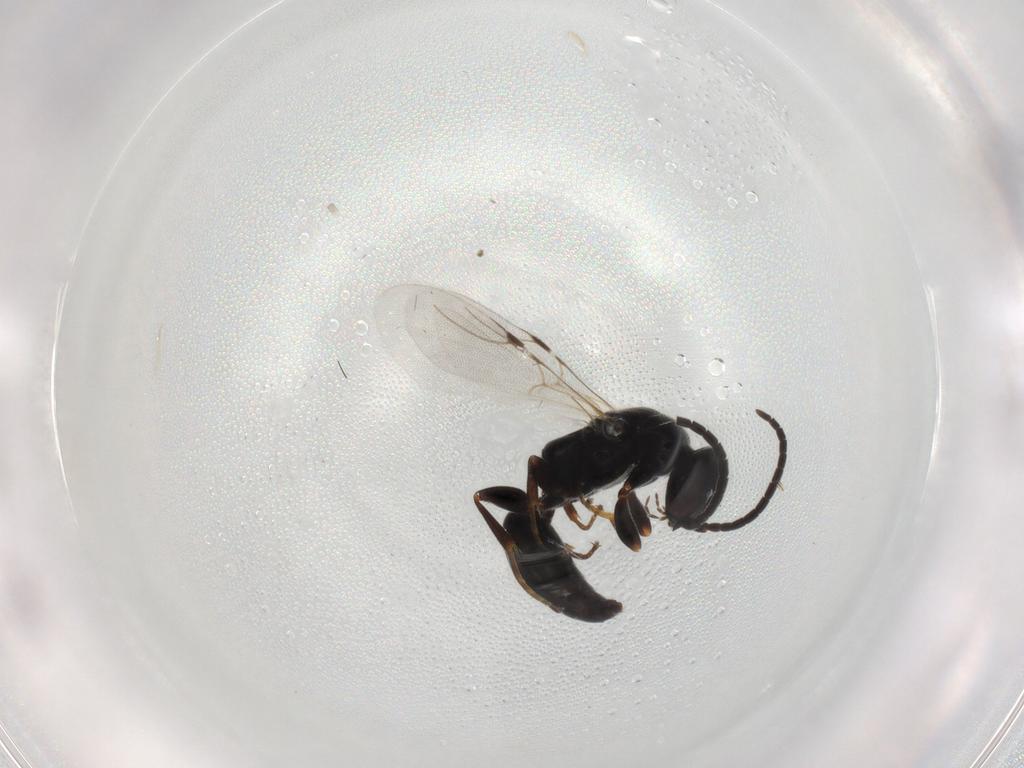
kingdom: Animalia
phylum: Arthropoda
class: Insecta
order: Hymenoptera
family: Bethylidae
